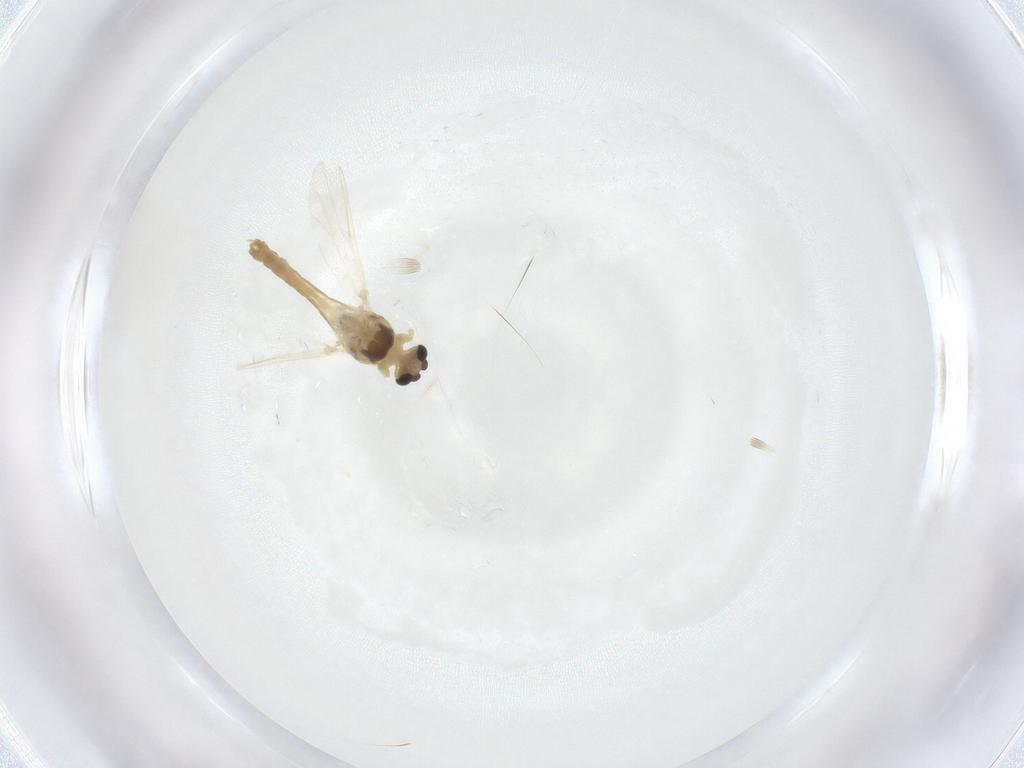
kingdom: Animalia
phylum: Arthropoda
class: Insecta
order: Diptera
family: Chironomidae
